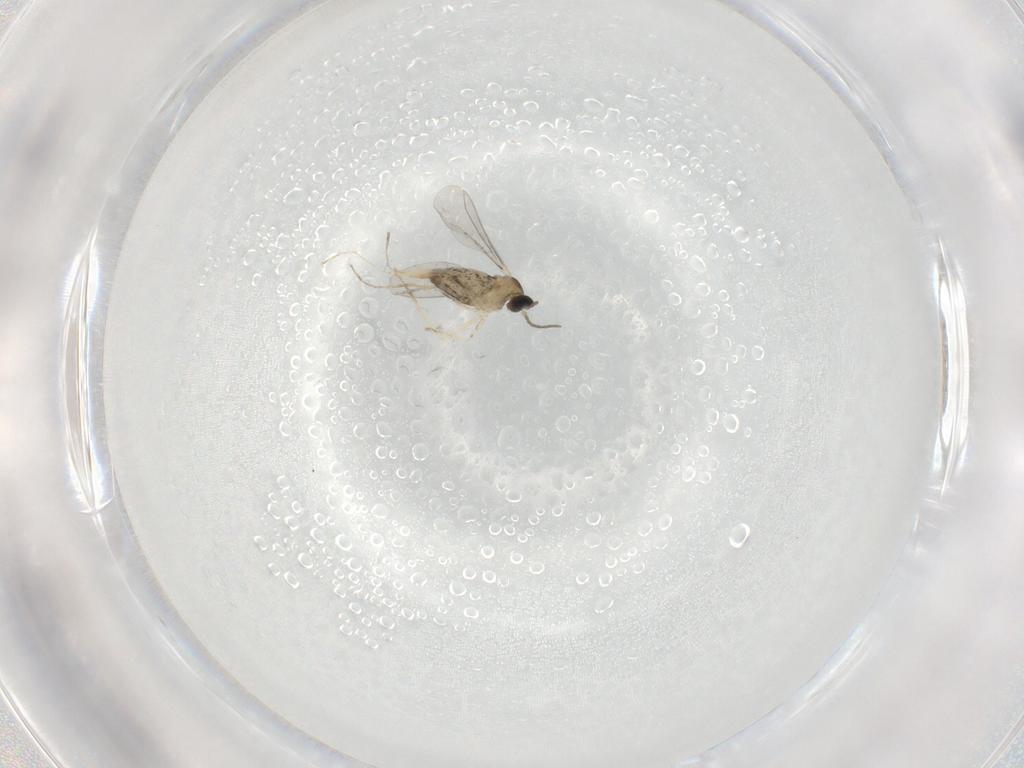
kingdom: Animalia
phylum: Arthropoda
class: Insecta
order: Diptera
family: Cecidomyiidae
